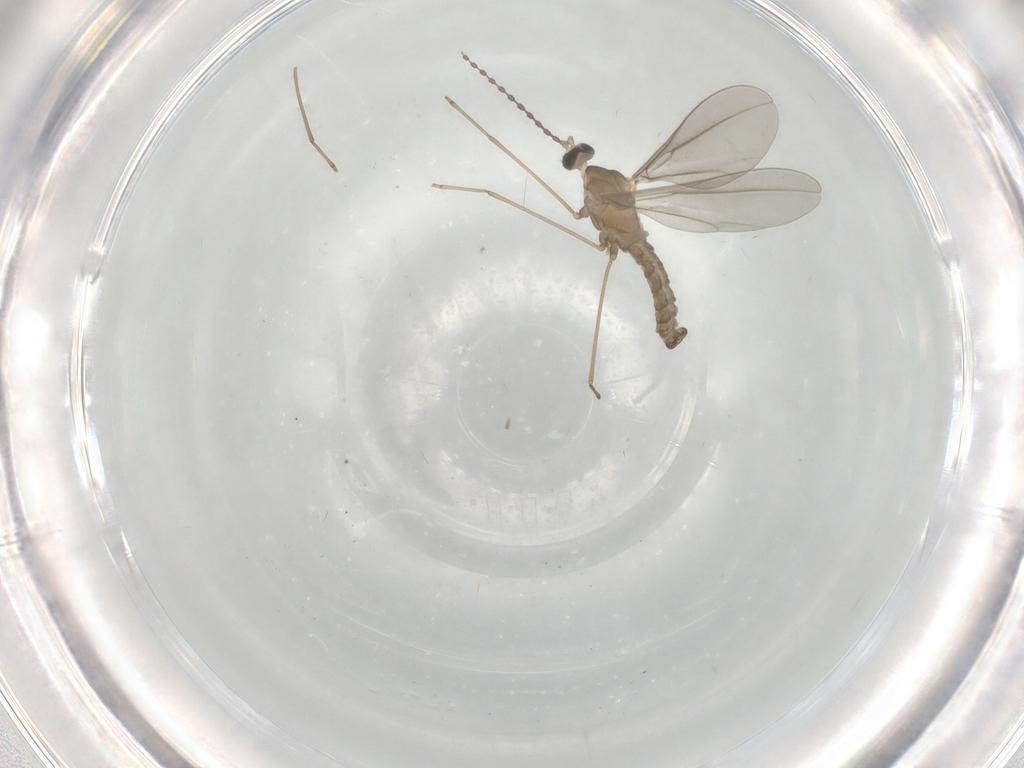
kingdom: Animalia
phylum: Arthropoda
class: Insecta
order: Diptera
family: Cecidomyiidae
